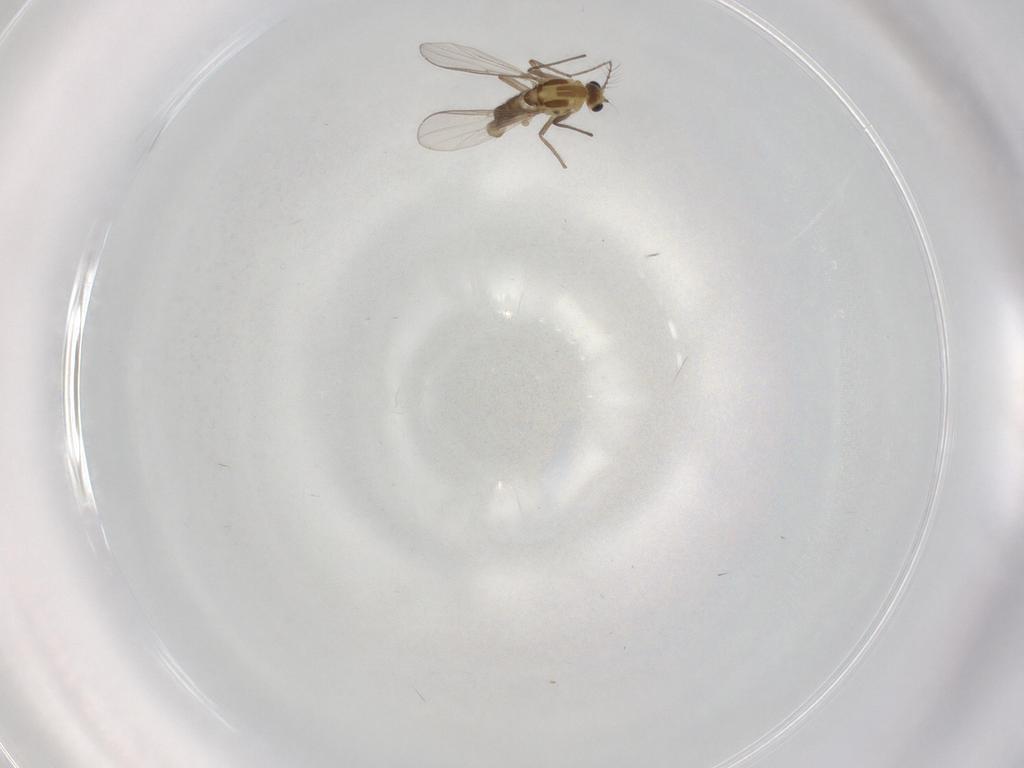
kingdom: Animalia
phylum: Arthropoda
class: Insecta
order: Diptera
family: Chironomidae
